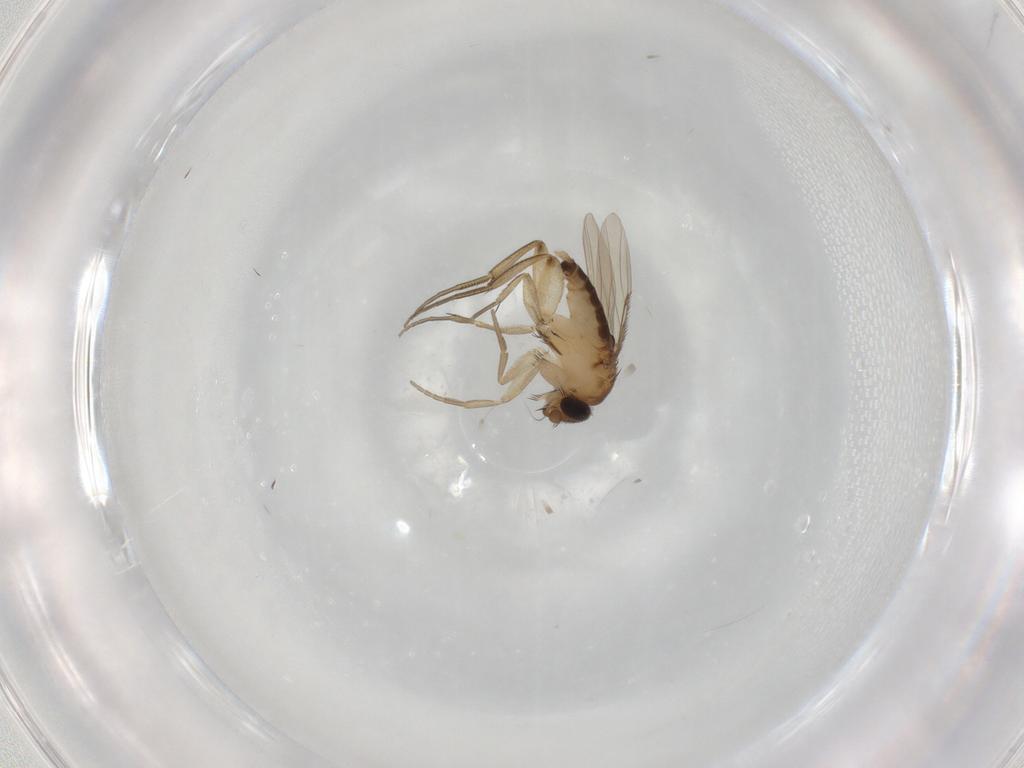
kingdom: Animalia
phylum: Arthropoda
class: Insecta
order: Diptera
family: Phoridae
